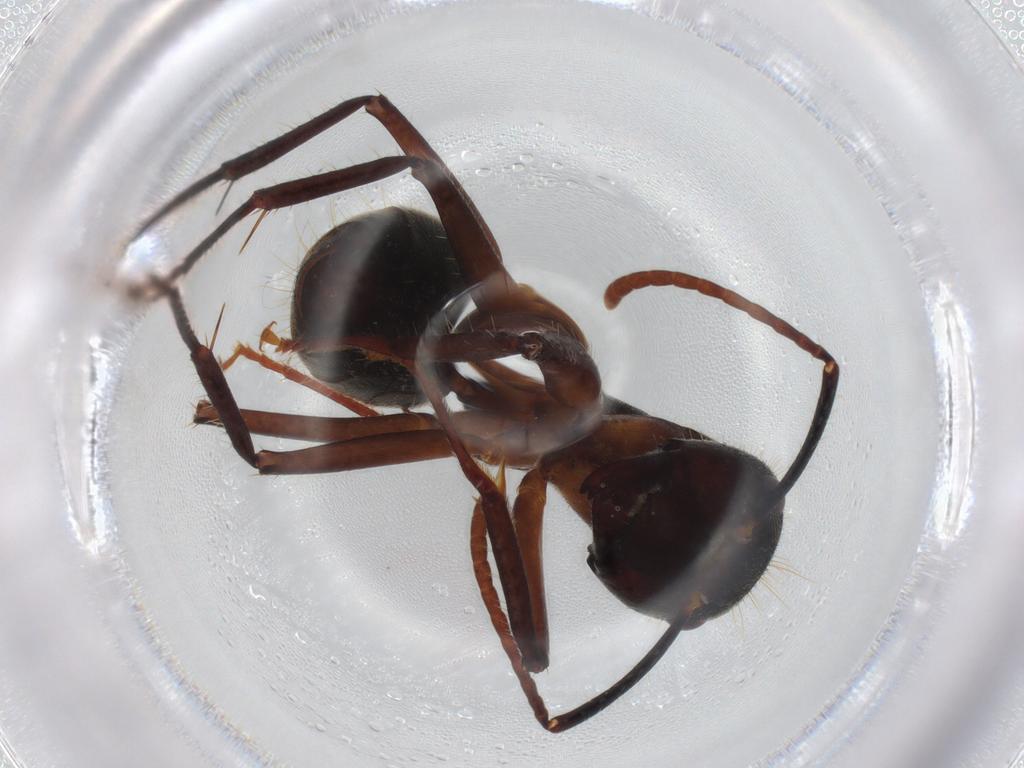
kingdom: Animalia
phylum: Arthropoda
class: Insecta
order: Hymenoptera
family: Formicidae
